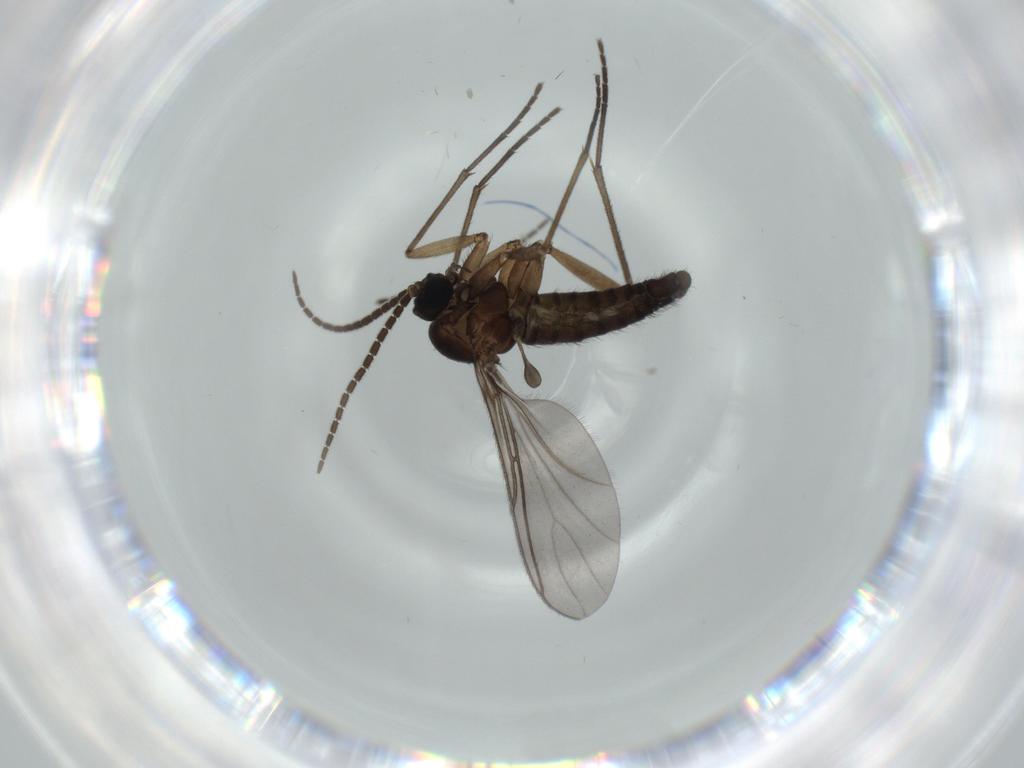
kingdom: Animalia
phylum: Arthropoda
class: Insecta
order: Diptera
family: Sciaridae
